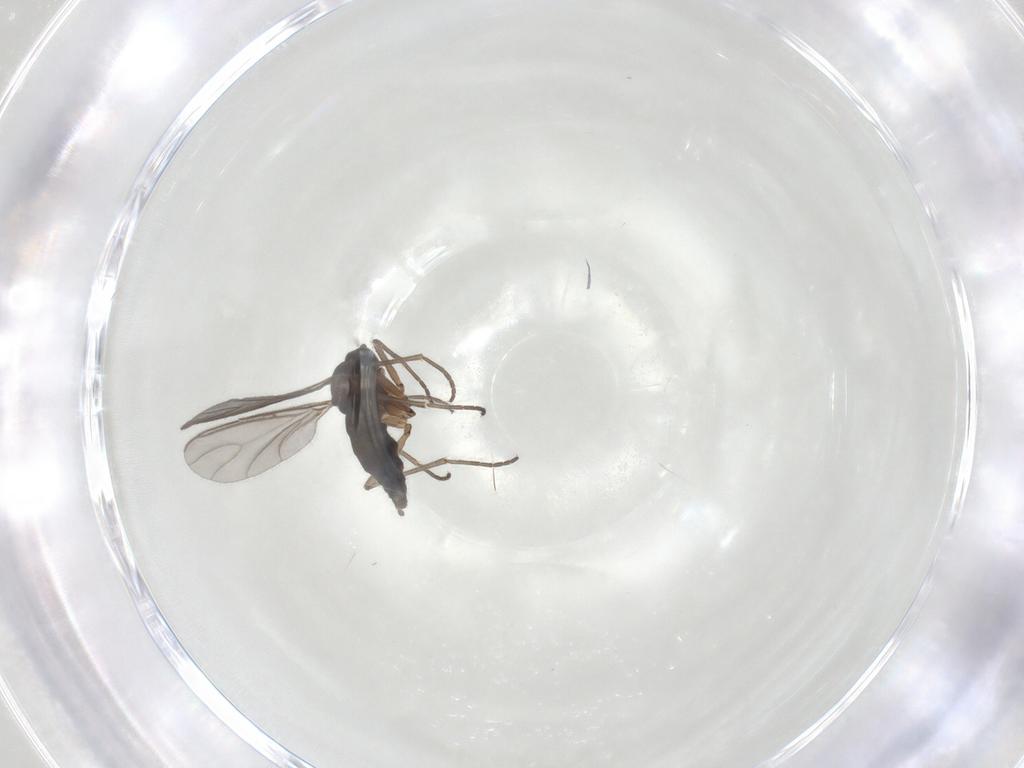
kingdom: Animalia
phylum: Arthropoda
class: Insecta
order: Diptera
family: Sciaridae
